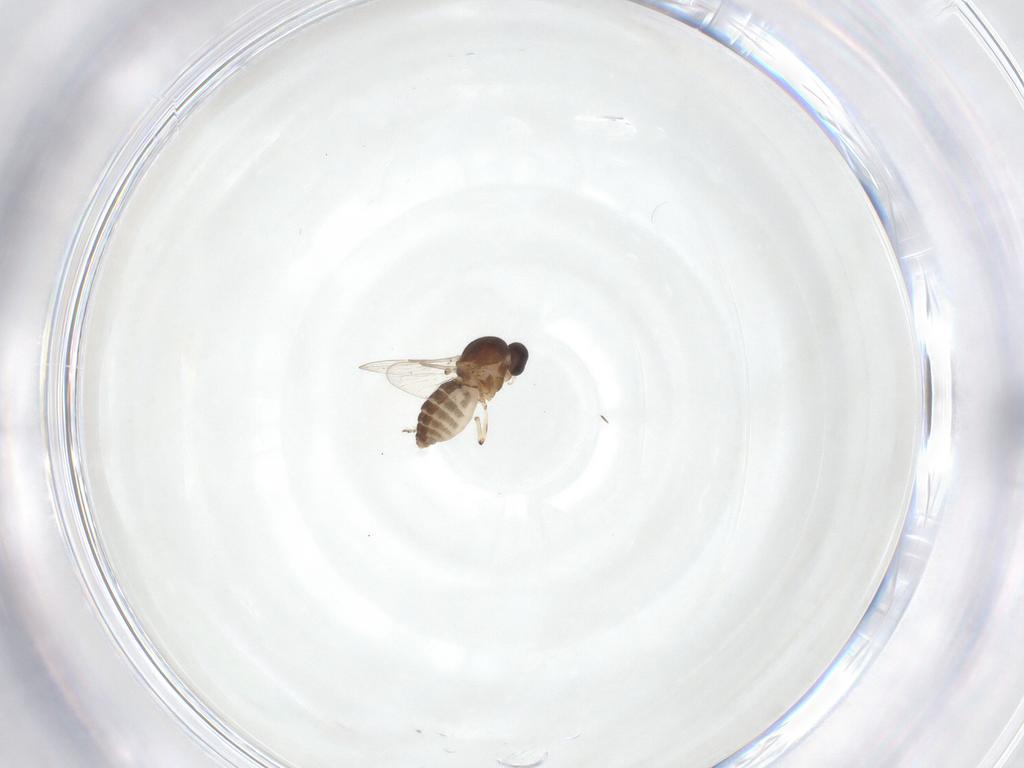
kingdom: Animalia
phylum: Arthropoda
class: Insecta
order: Diptera
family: Ceratopogonidae
